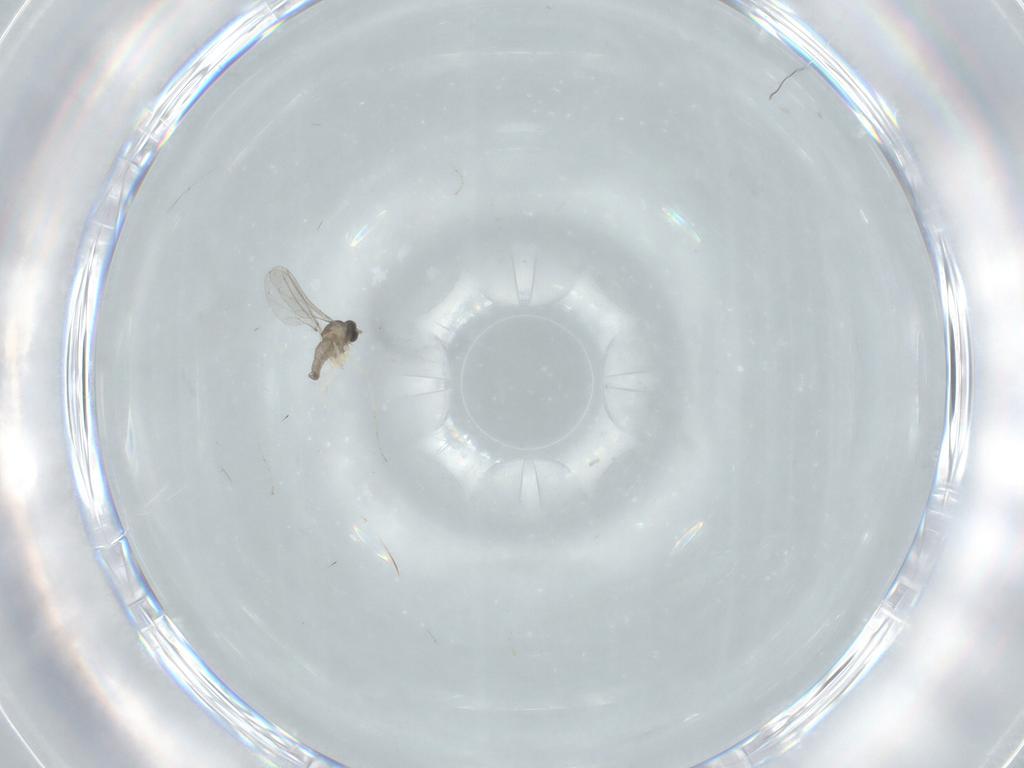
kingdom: Animalia
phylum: Arthropoda
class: Insecta
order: Diptera
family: Cecidomyiidae
